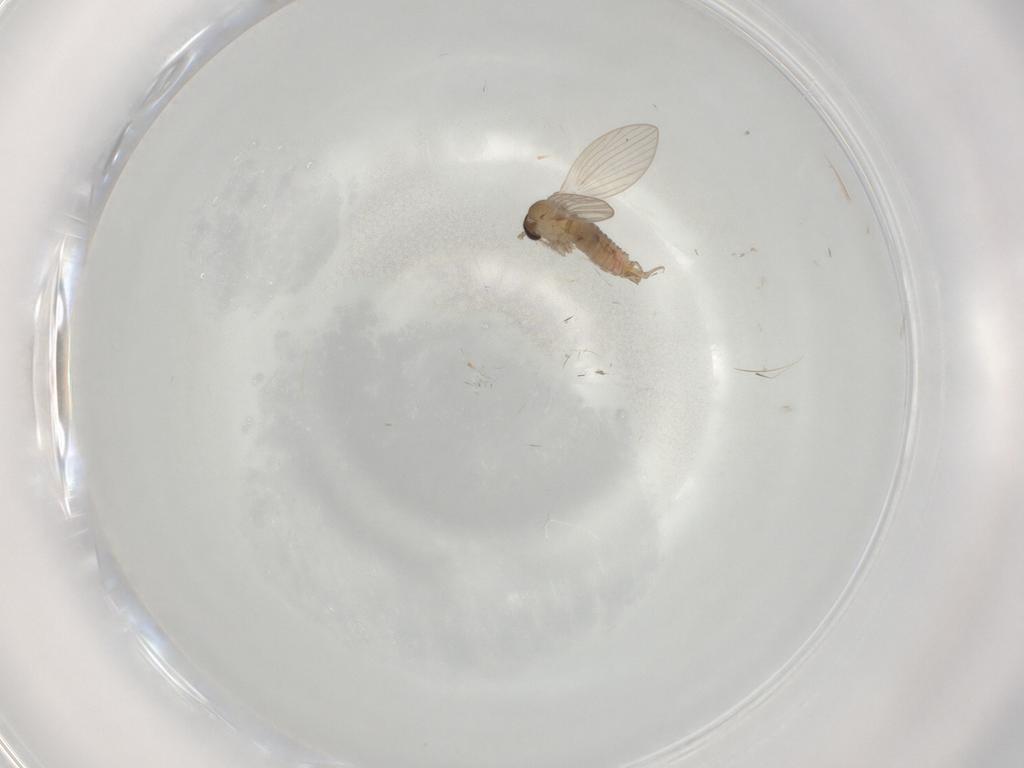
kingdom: Animalia
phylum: Arthropoda
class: Insecta
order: Diptera
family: Psychodidae
